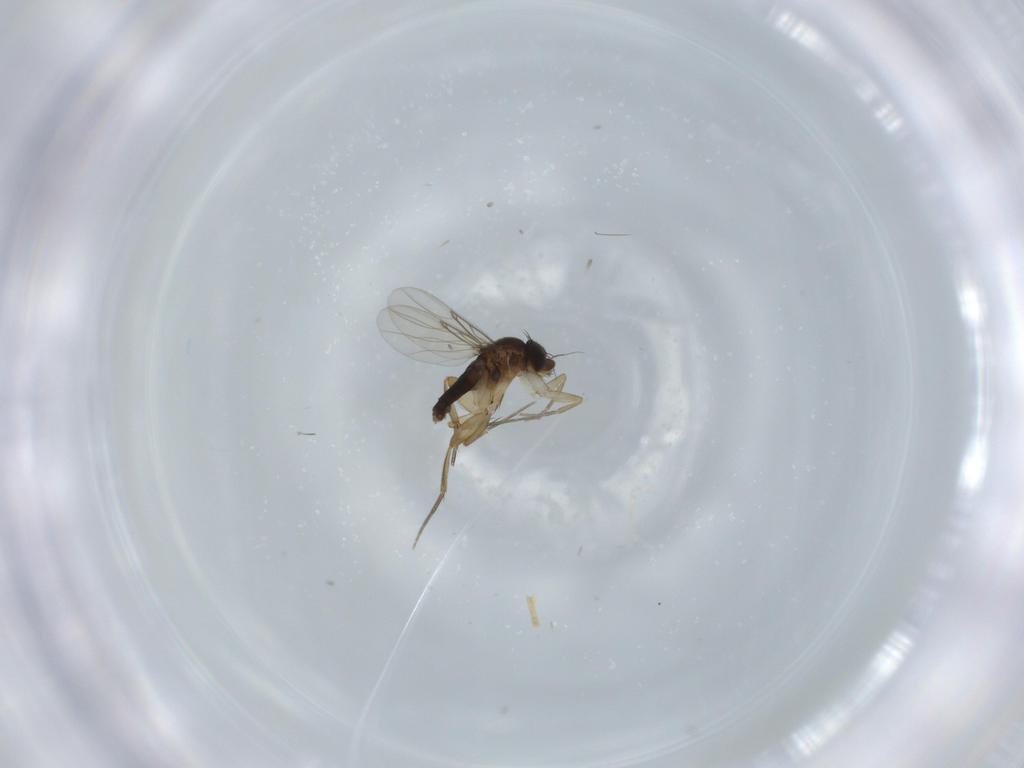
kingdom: Animalia
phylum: Arthropoda
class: Insecta
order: Diptera
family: Phoridae
